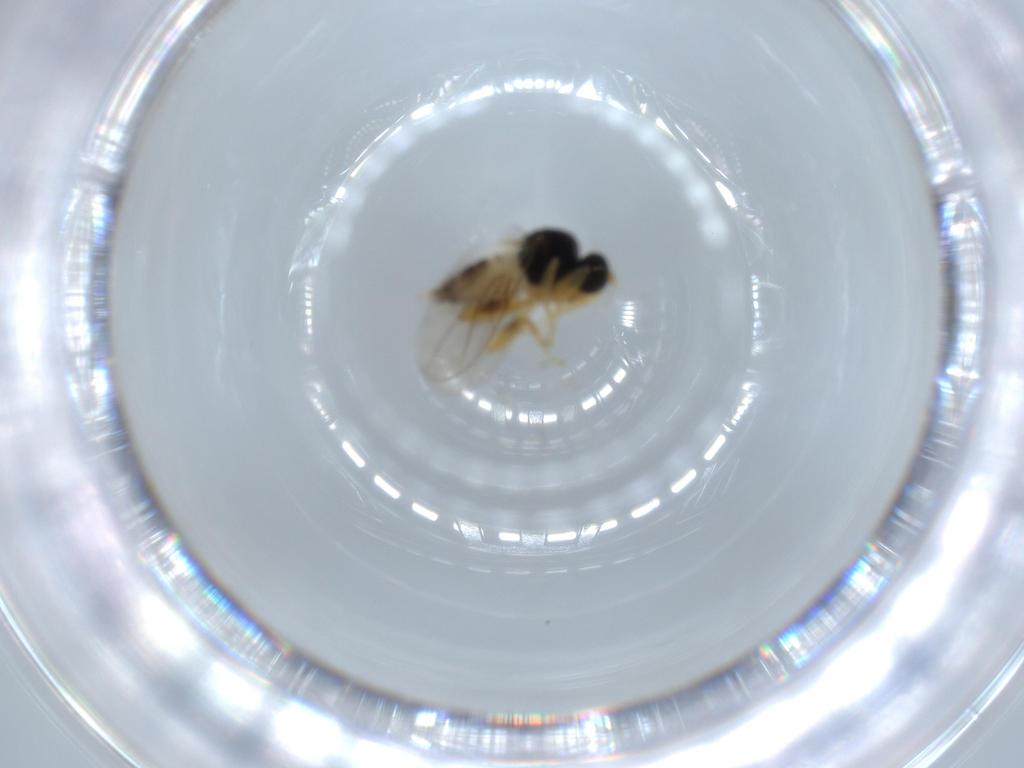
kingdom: Animalia
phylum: Arthropoda
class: Insecta
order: Diptera
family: Hybotidae
